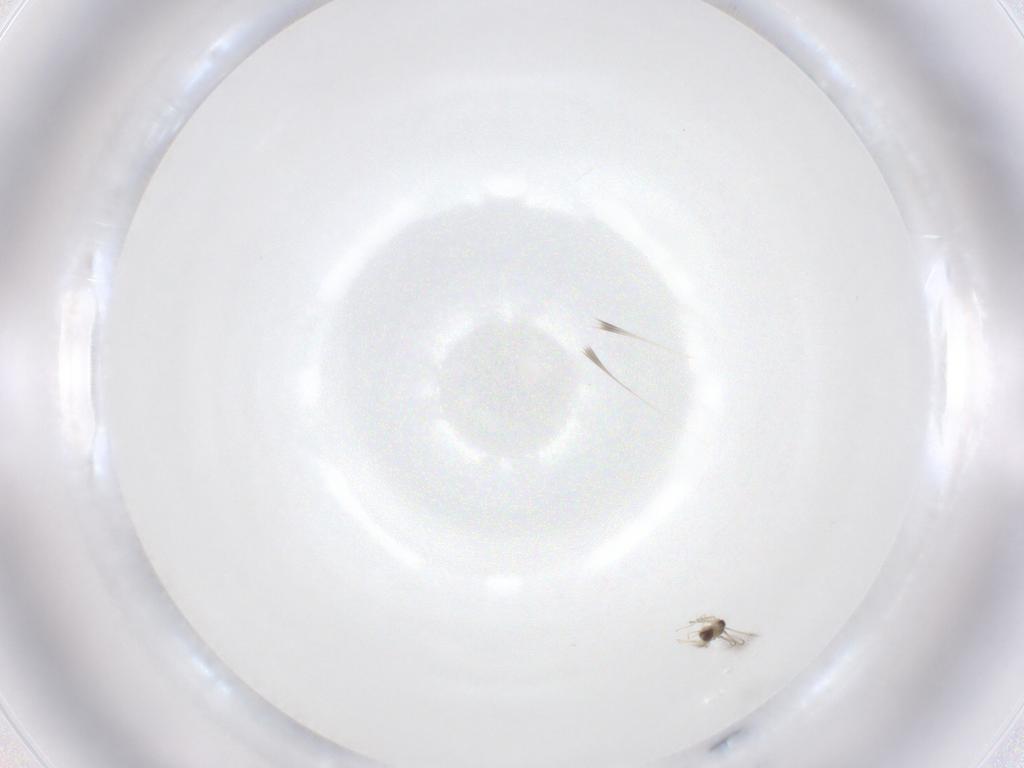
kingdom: Animalia
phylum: Arthropoda
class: Insecta
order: Hymenoptera
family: Mymaridae
